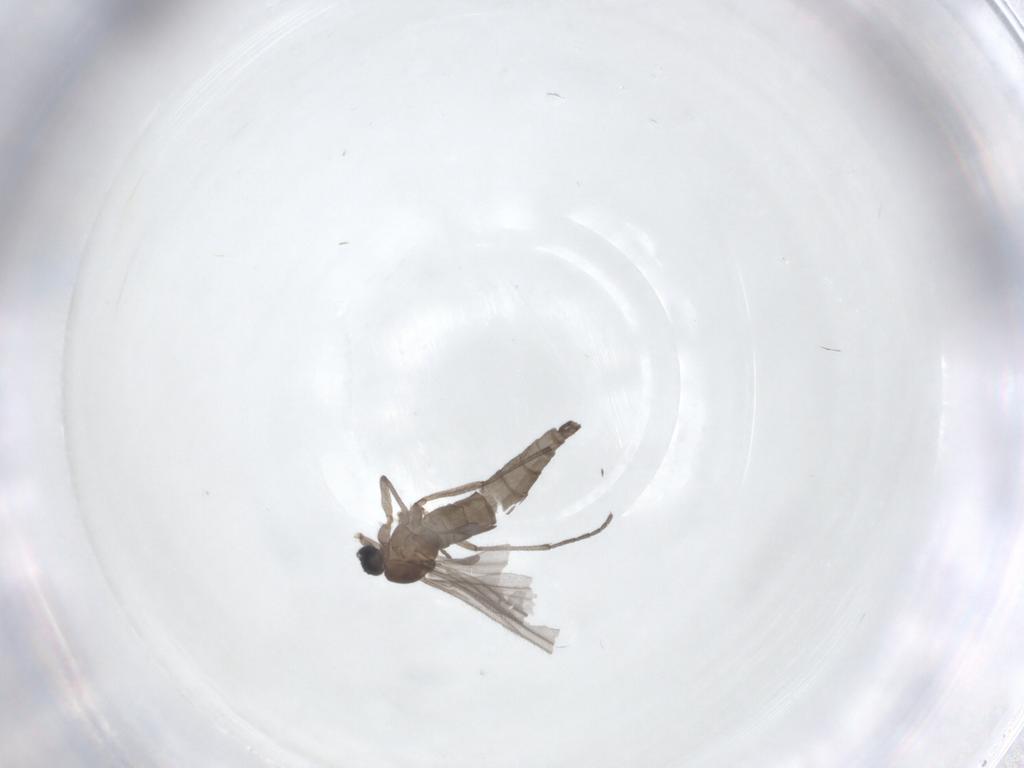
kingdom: Animalia
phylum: Arthropoda
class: Insecta
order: Diptera
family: Sciaridae
